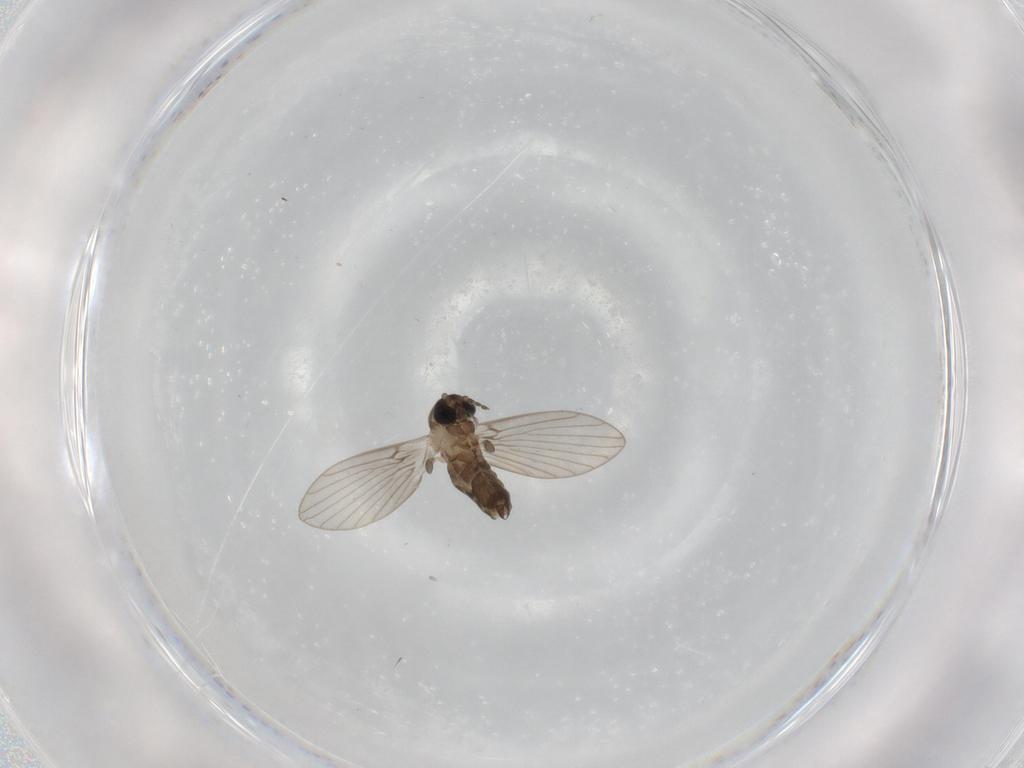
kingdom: Animalia
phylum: Arthropoda
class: Insecta
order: Diptera
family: Psychodidae
